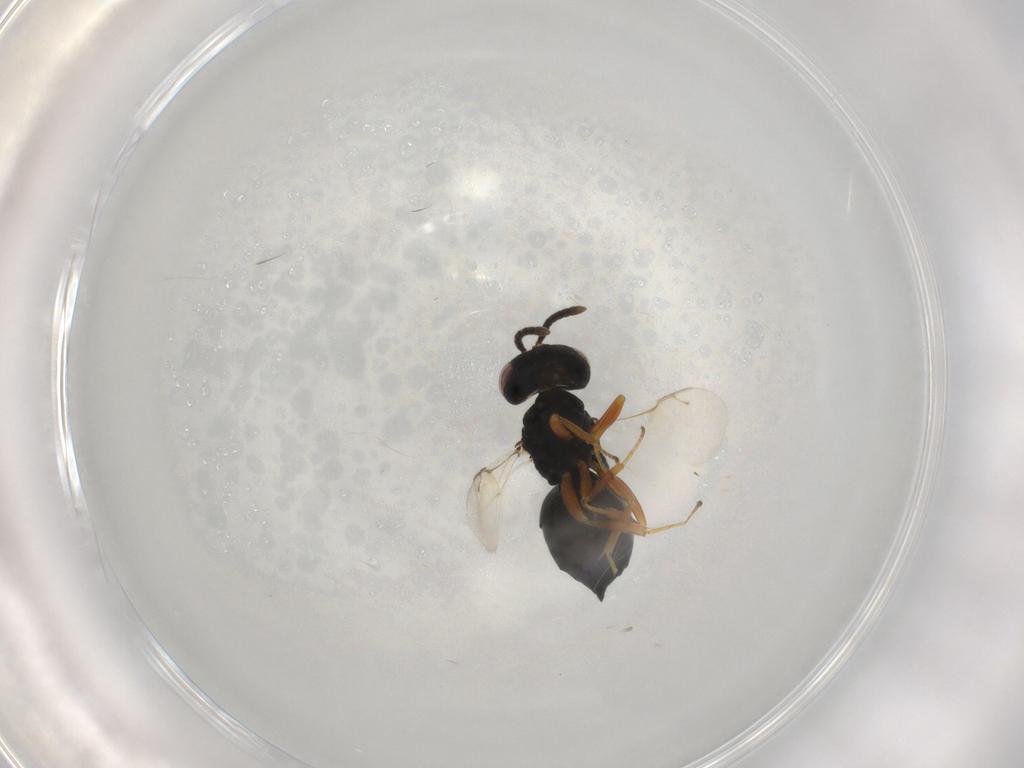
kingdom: Animalia
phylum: Arthropoda
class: Insecta
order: Hymenoptera
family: Pteromalidae
